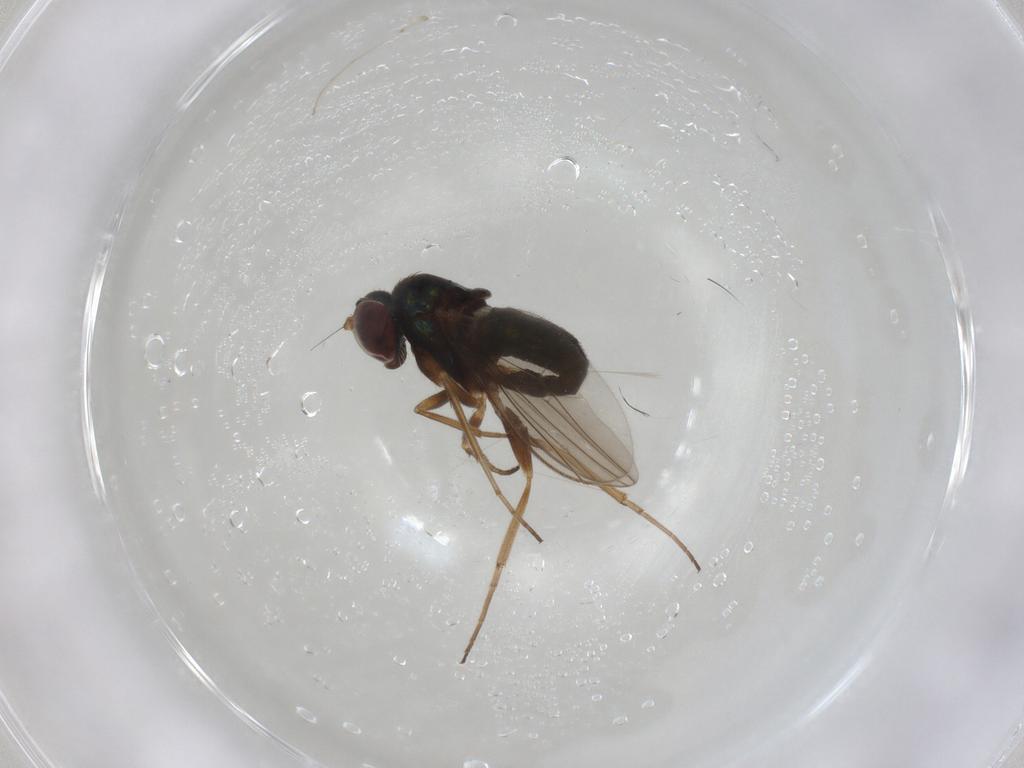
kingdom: Animalia
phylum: Arthropoda
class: Insecta
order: Diptera
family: Dolichopodidae
